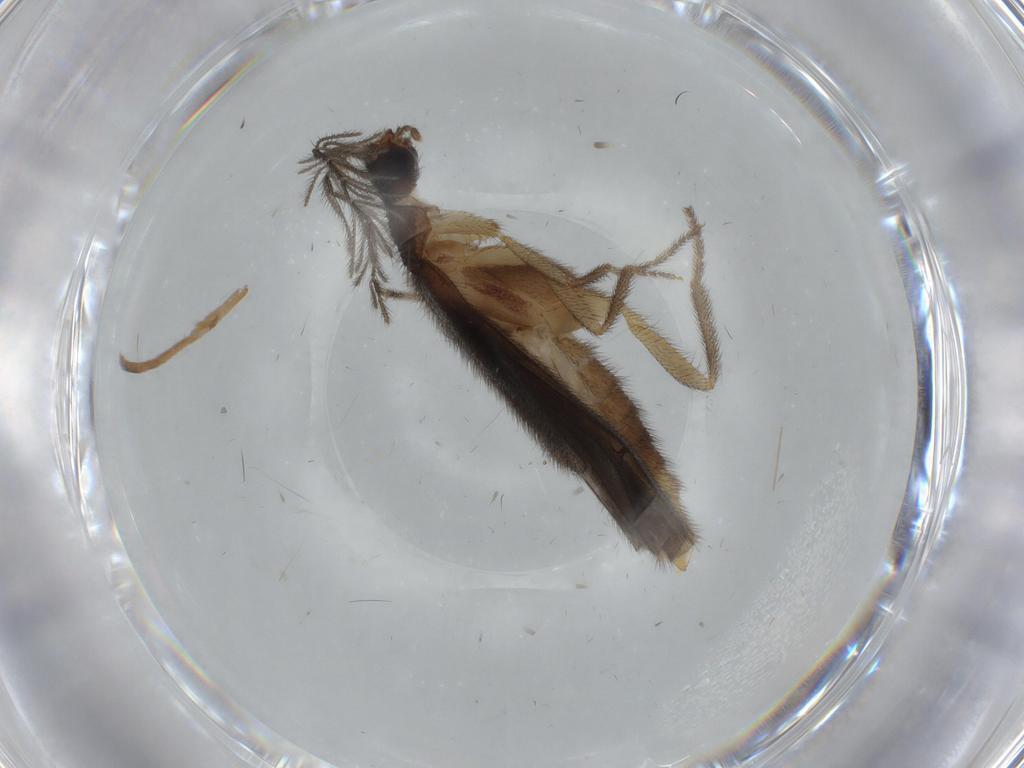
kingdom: Animalia
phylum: Arthropoda
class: Insecta
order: Coleoptera
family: Phengodidae
